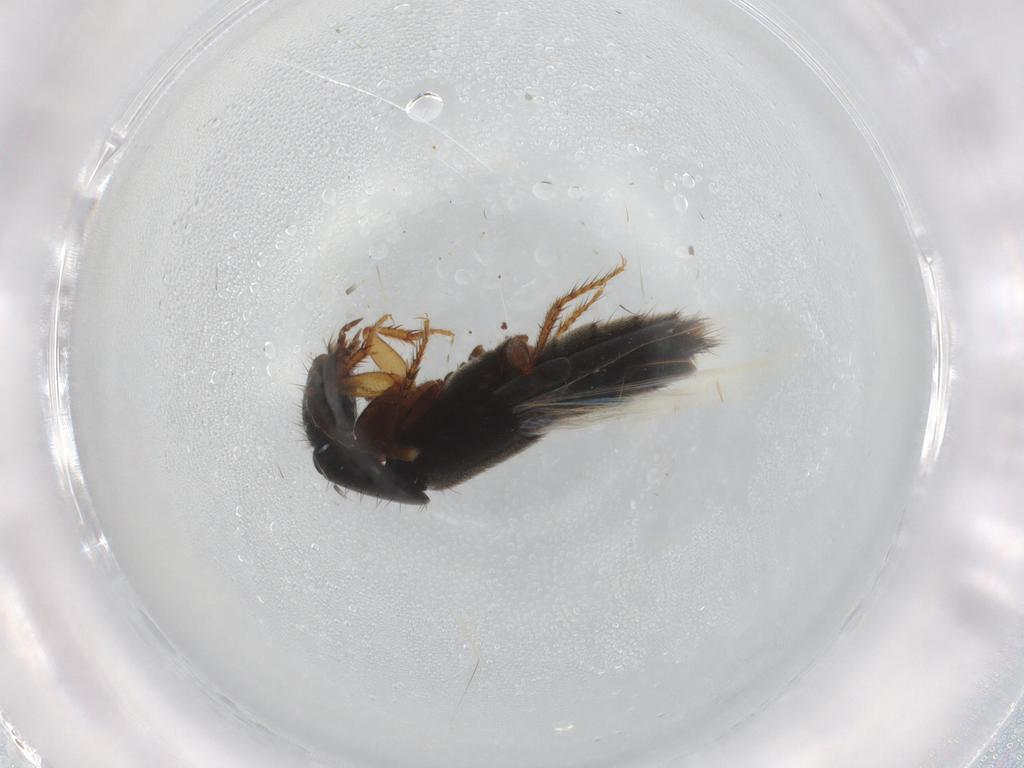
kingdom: Animalia
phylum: Arthropoda
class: Insecta
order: Coleoptera
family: Staphylinidae
